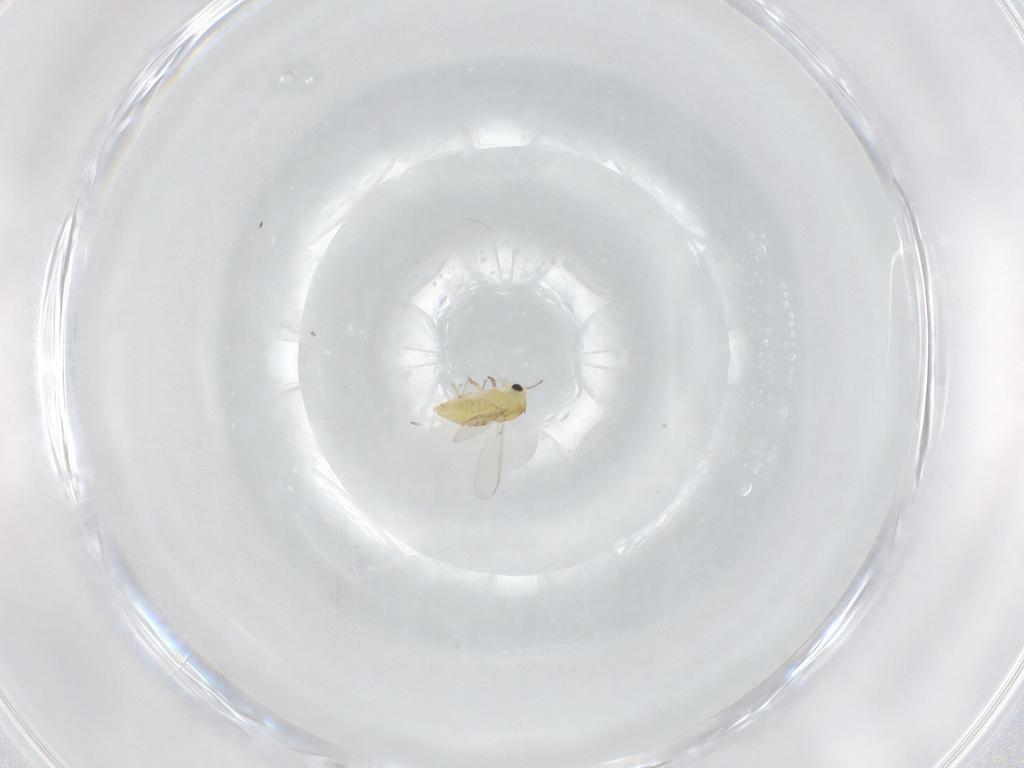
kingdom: Animalia
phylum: Arthropoda
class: Insecta
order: Diptera
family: Chironomidae
